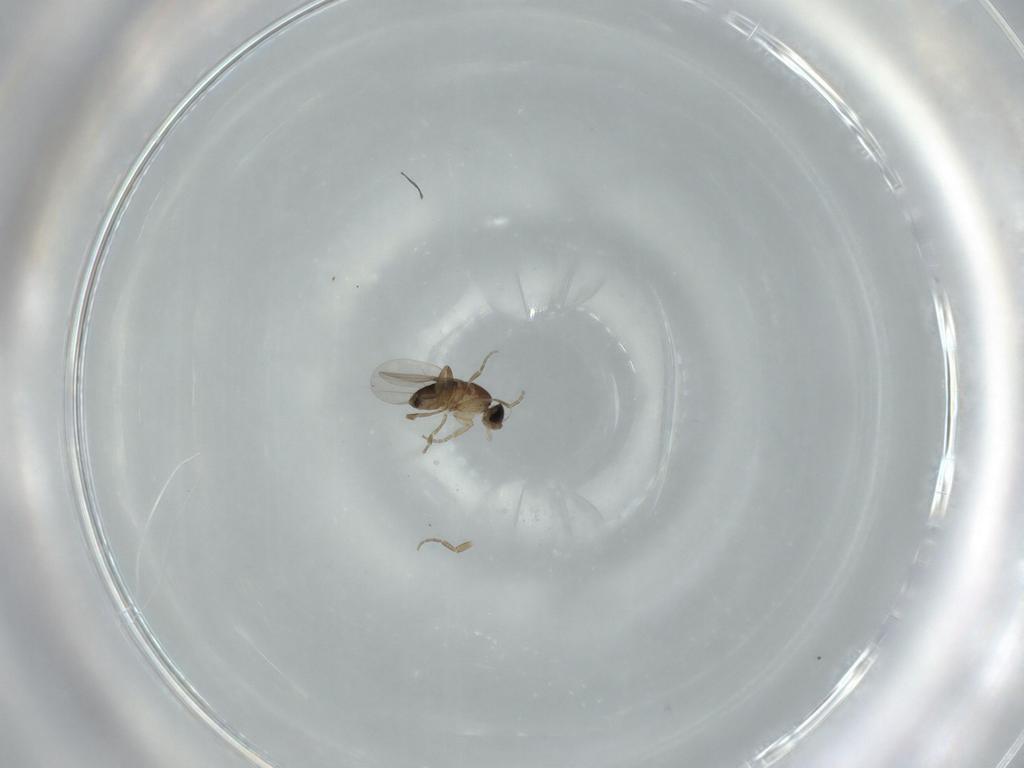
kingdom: Animalia
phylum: Arthropoda
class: Insecta
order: Diptera
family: Phoridae
